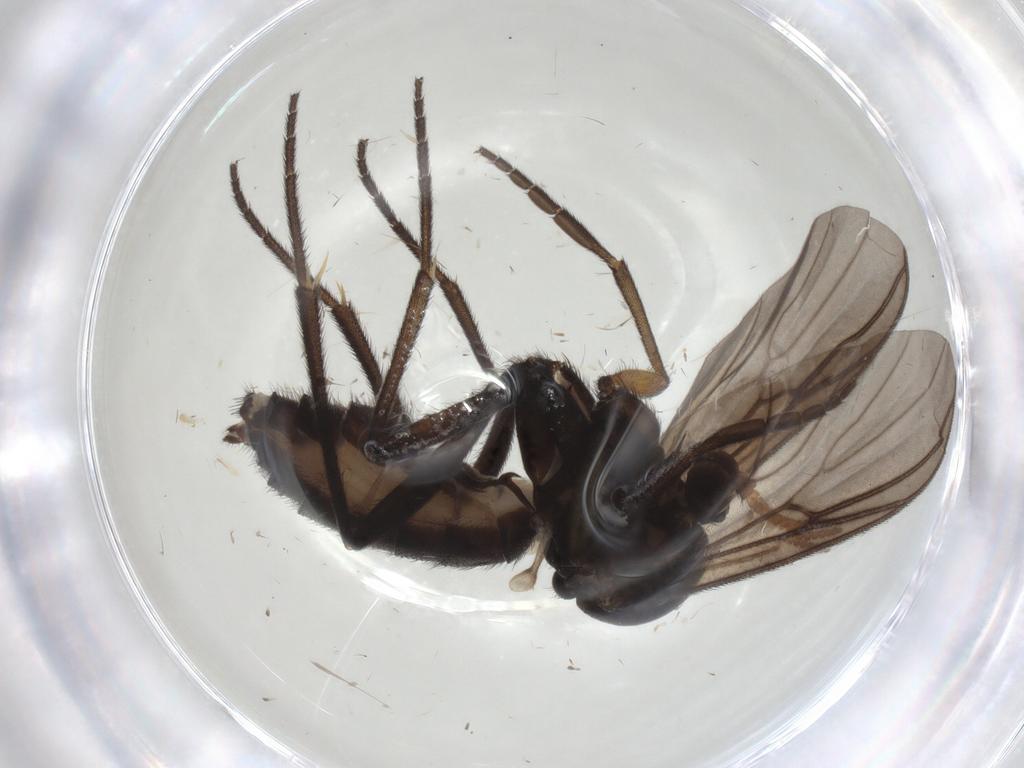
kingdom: Animalia
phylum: Arthropoda
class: Insecta
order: Diptera
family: Mycetophilidae
